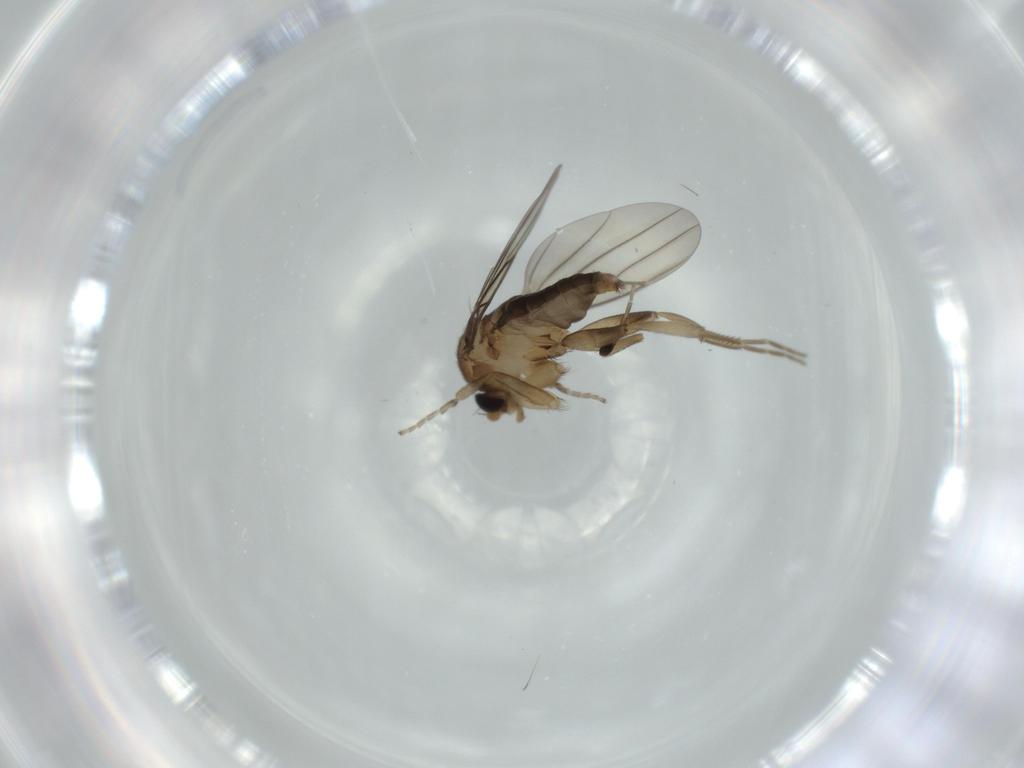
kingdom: Animalia
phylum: Arthropoda
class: Insecta
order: Diptera
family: Phoridae
